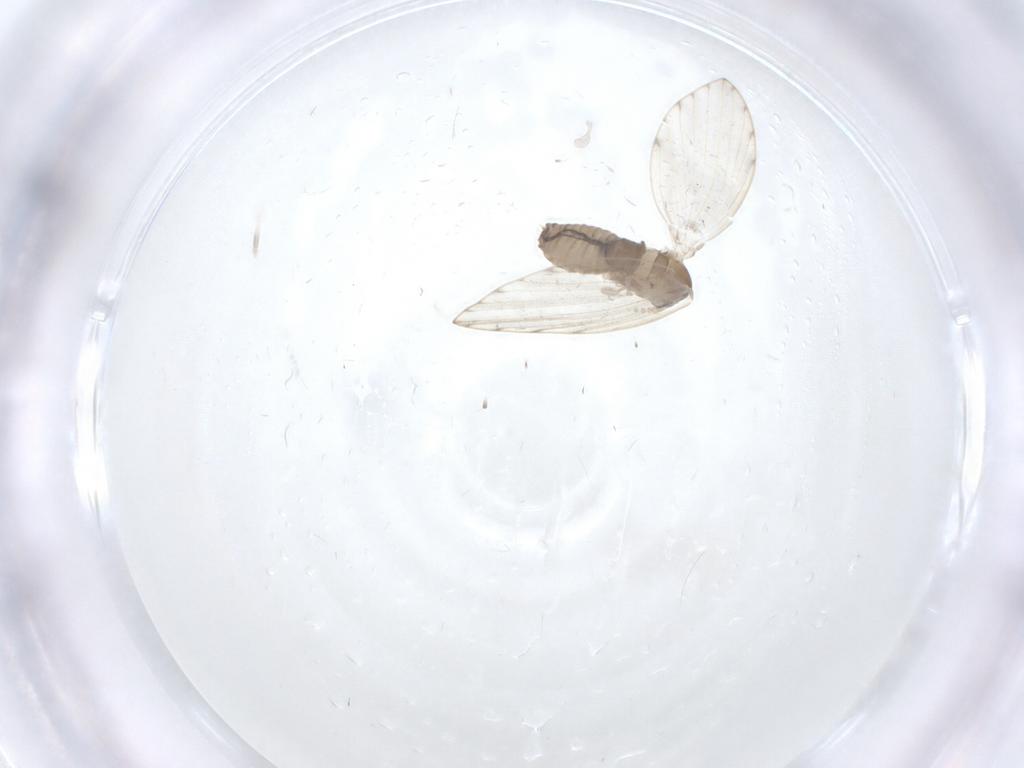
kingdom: Animalia
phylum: Arthropoda
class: Insecta
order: Diptera
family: Psychodidae
